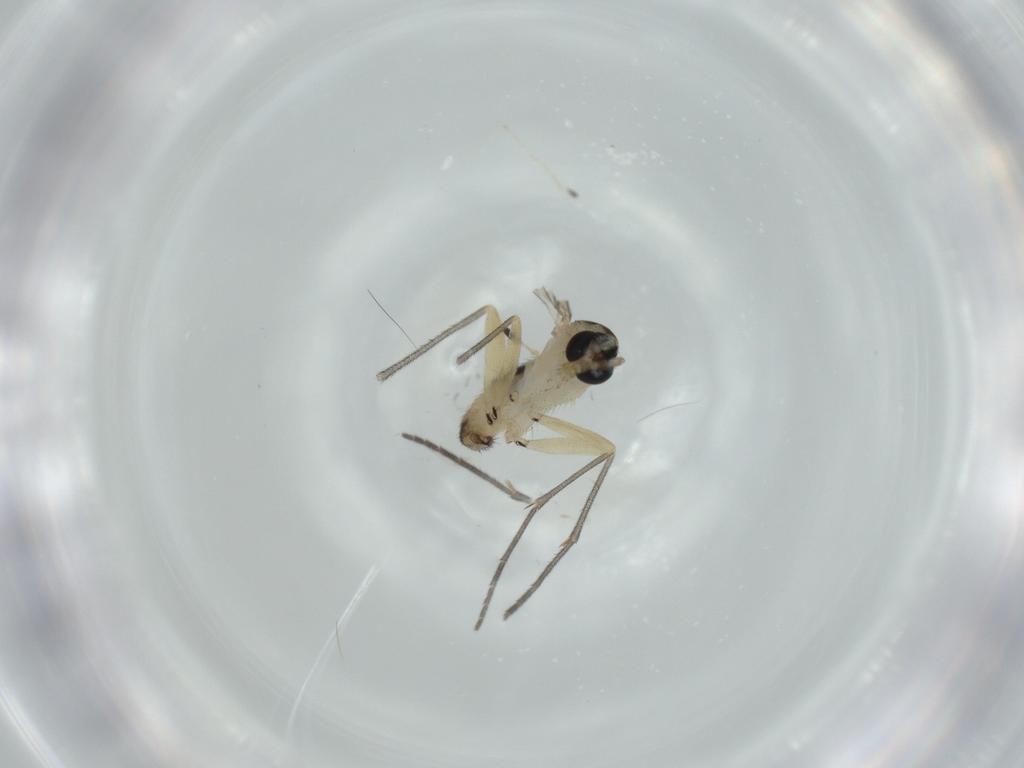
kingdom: Animalia
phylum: Arthropoda
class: Insecta
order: Diptera
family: Sciaridae
